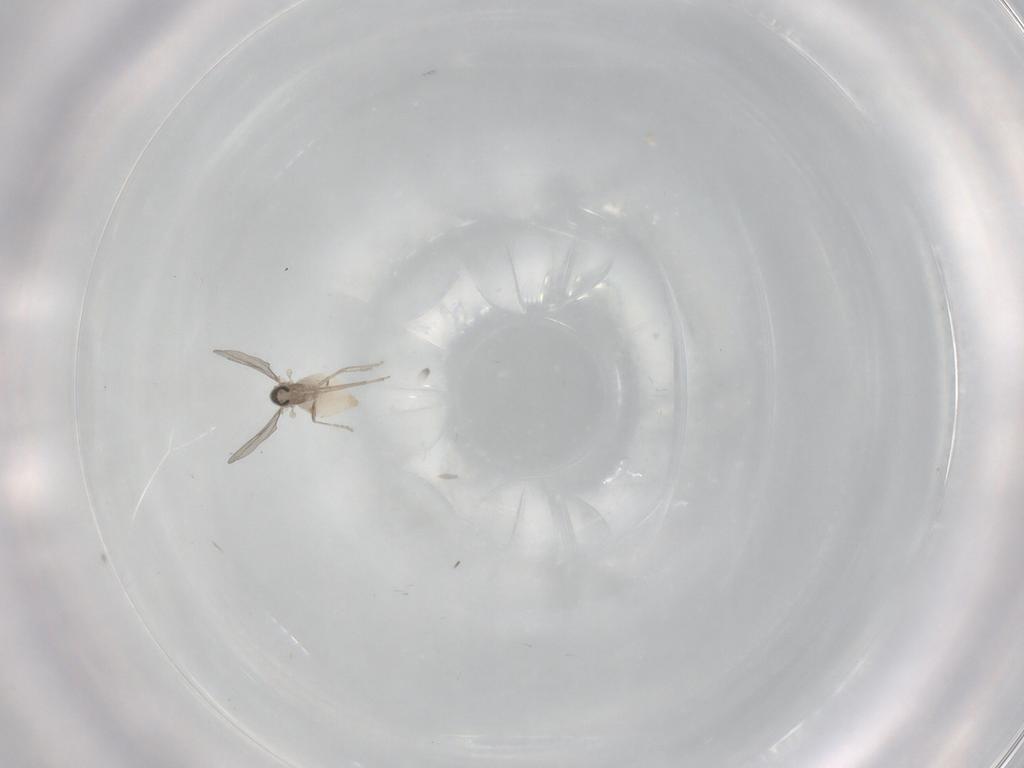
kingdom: Animalia
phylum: Arthropoda
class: Insecta
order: Diptera
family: Cecidomyiidae
